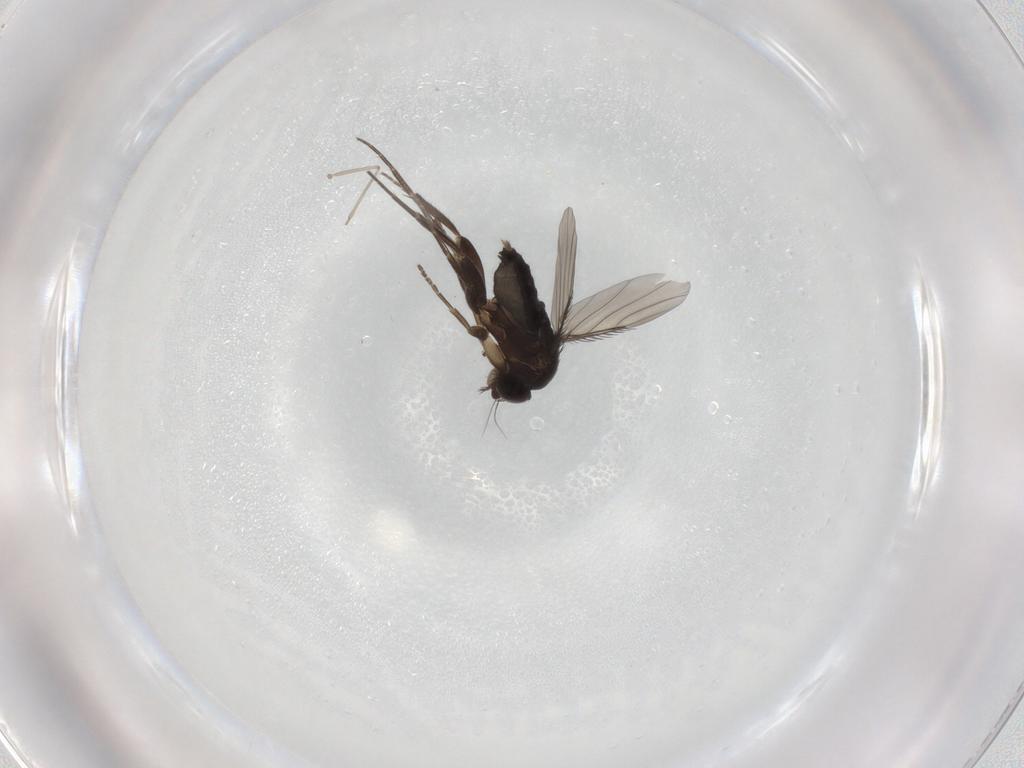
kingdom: Animalia
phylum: Arthropoda
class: Insecta
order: Diptera
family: Phoridae
